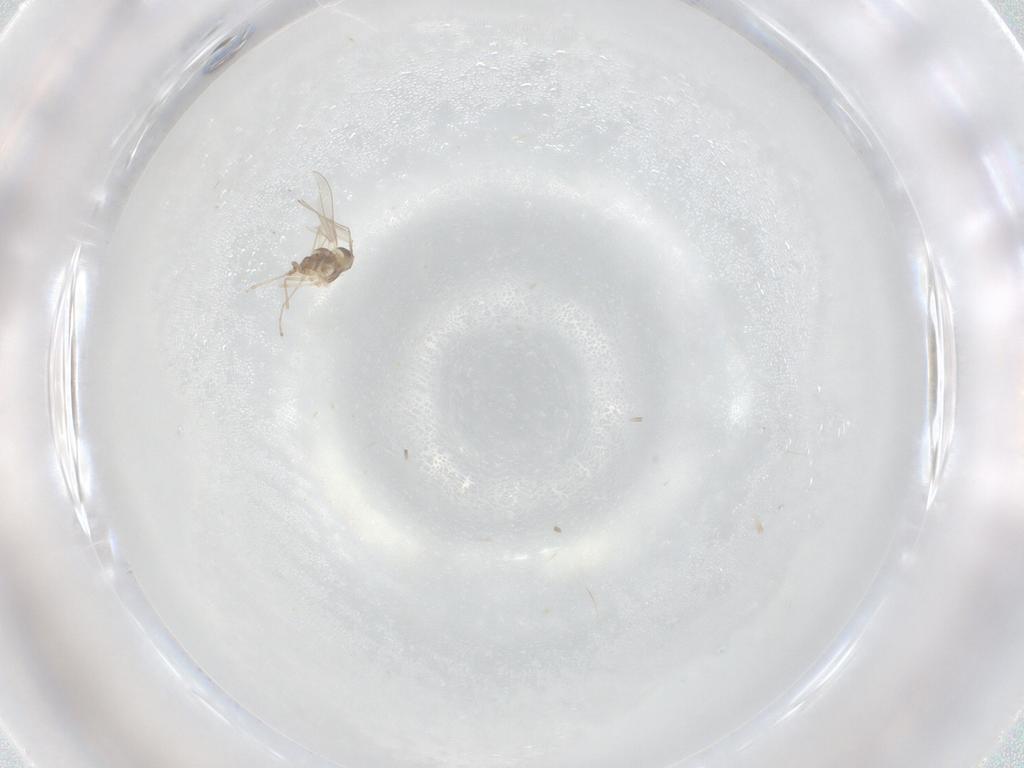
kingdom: Animalia
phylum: Arthropoda
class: Insecta
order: Diptera
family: Cecidomyiidae
